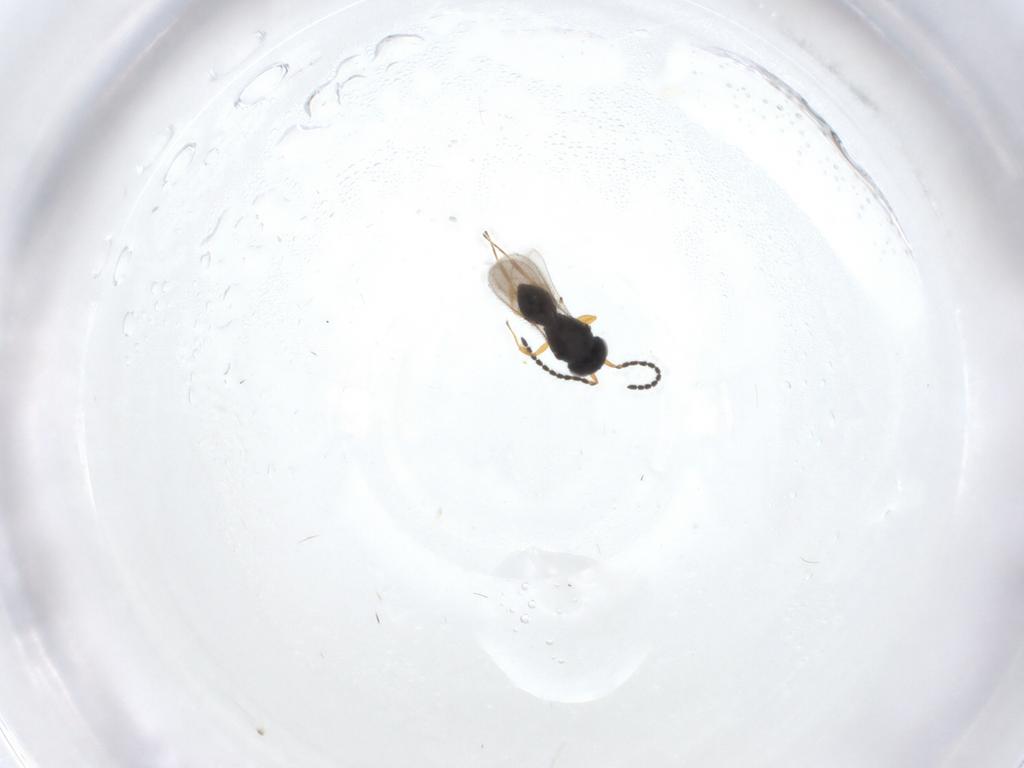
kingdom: Animalia
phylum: Arthropoda
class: Insecta
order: Hymenoptera
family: Scelionidae
